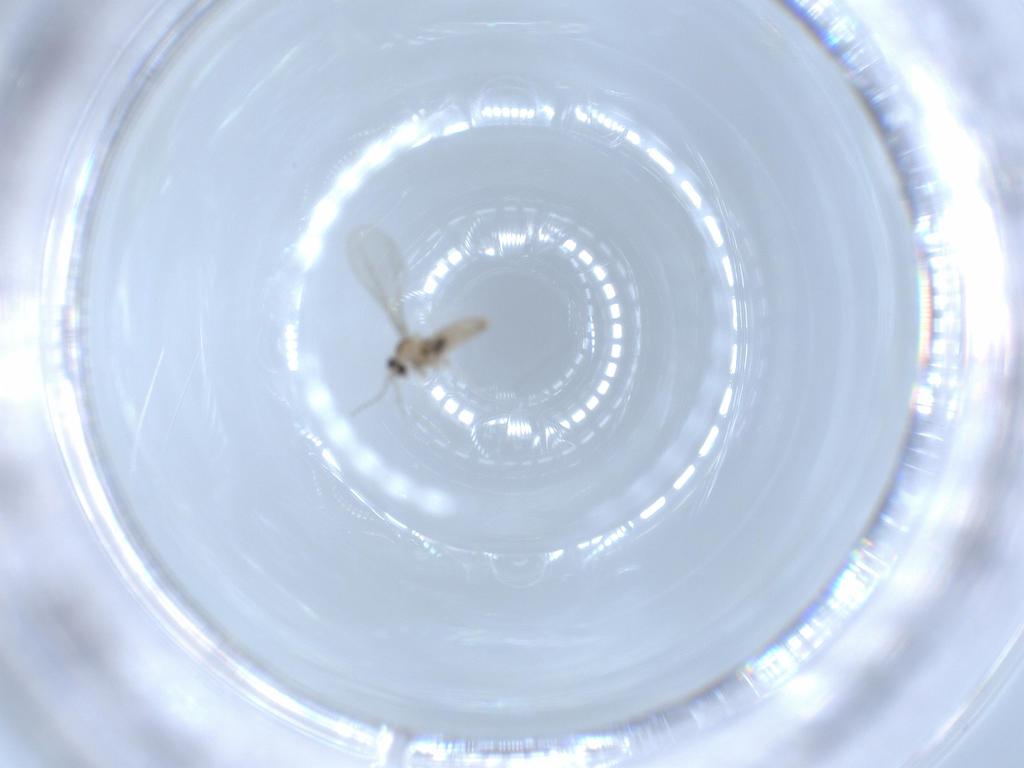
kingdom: Animalia
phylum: Arthropoda
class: Insecta
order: Diptera
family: Cecidomyiidae
